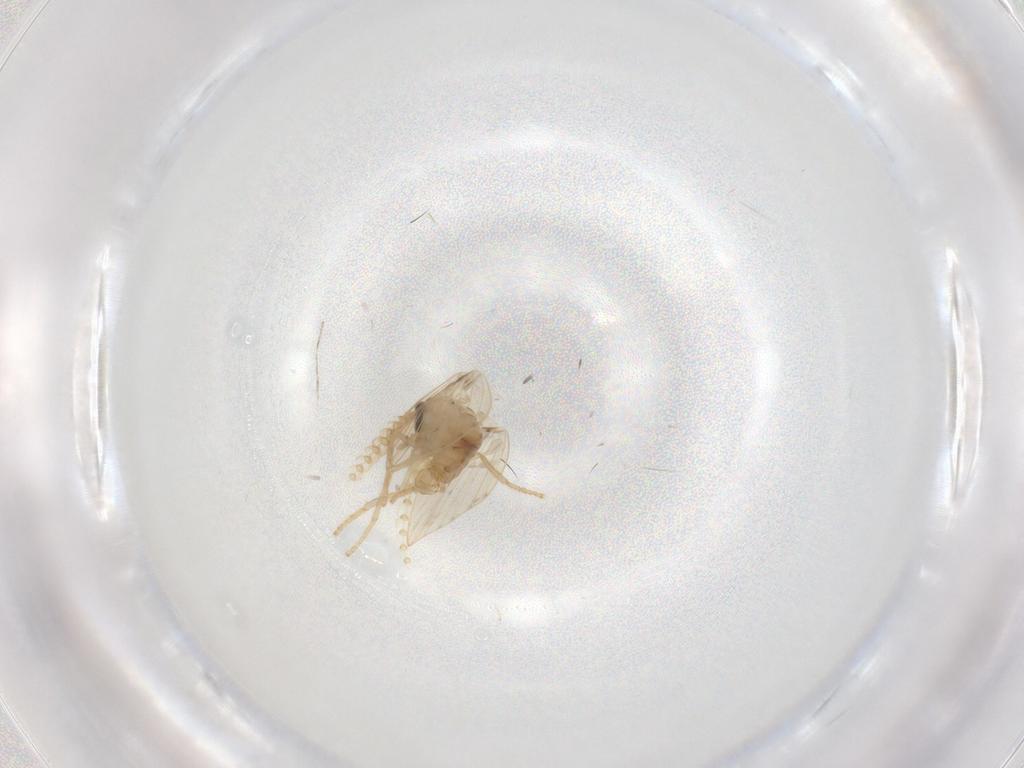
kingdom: Animalia
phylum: Arthropoda
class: Insecta
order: Diptera
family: Psychodidae
